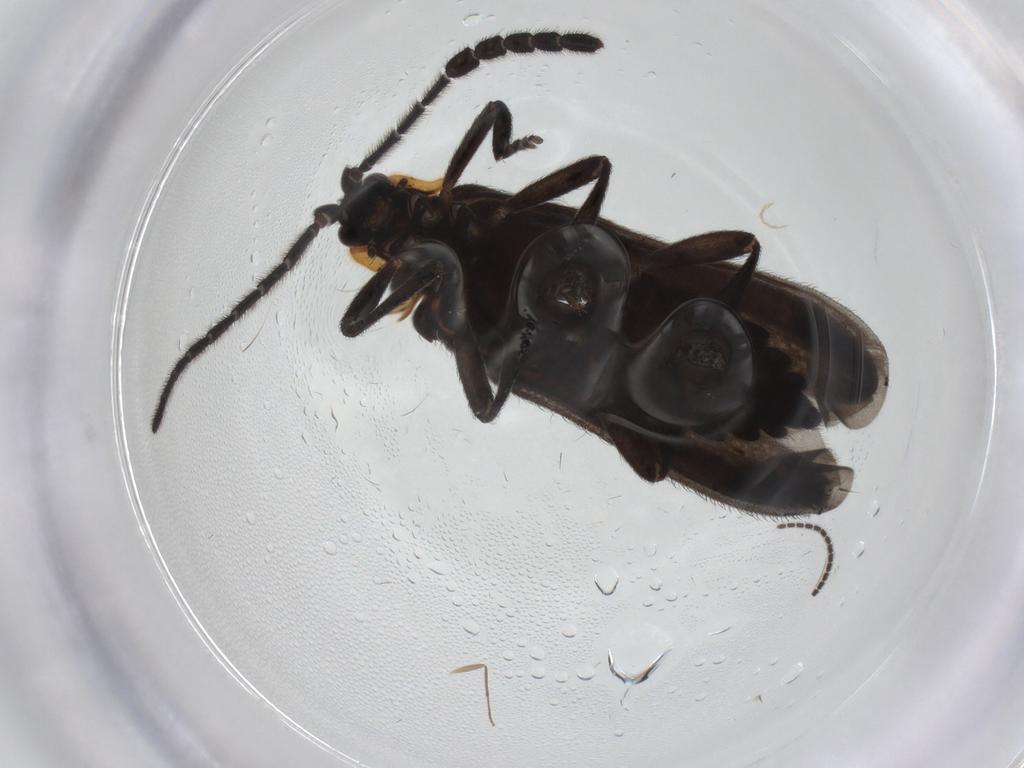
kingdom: Animalia
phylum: Arthropoda
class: Insecta
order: Coleoptera
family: Lycidae
